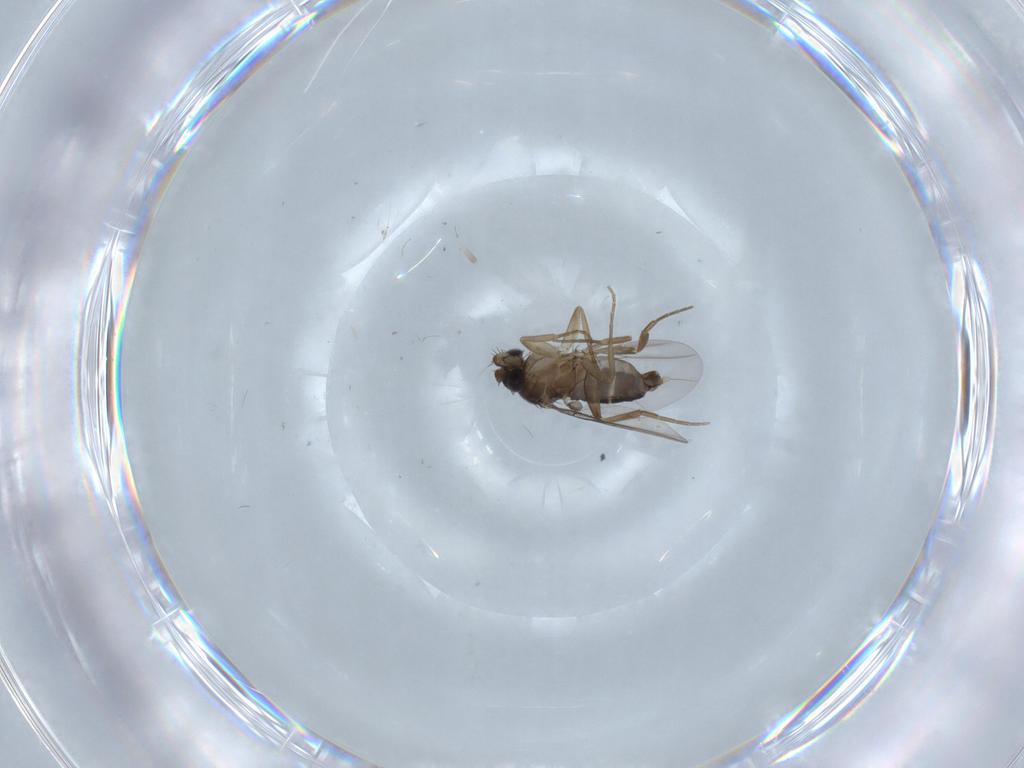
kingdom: Animalia
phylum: Arthropoda
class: Insecta
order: Diptera
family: Phoridae
